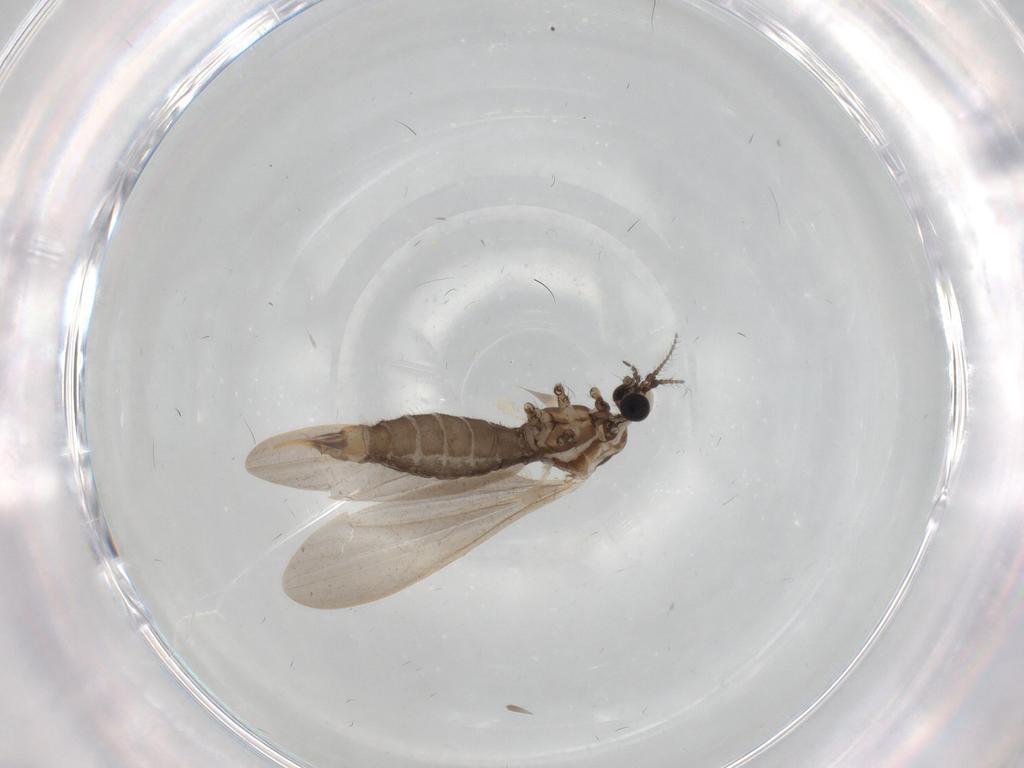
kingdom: Animalia
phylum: Arthropoda
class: Insecta
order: Diptera
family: Limoniidae
